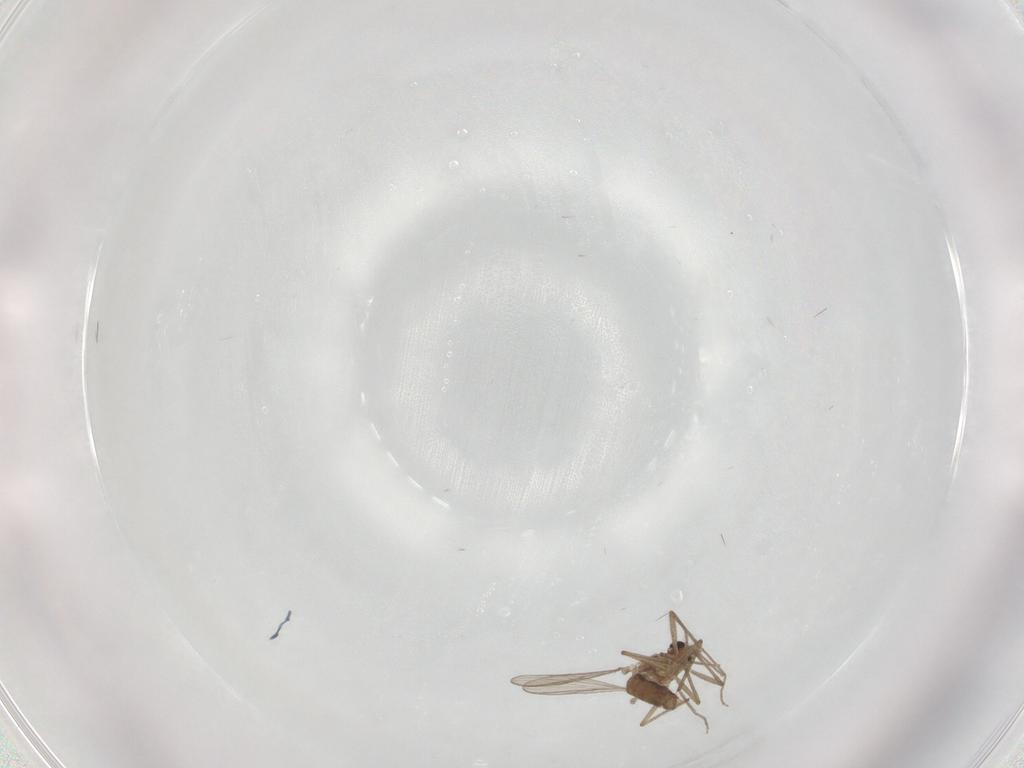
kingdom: Animalia
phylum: Arthropoda
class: Insecta
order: Diptera
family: Chironomidae
